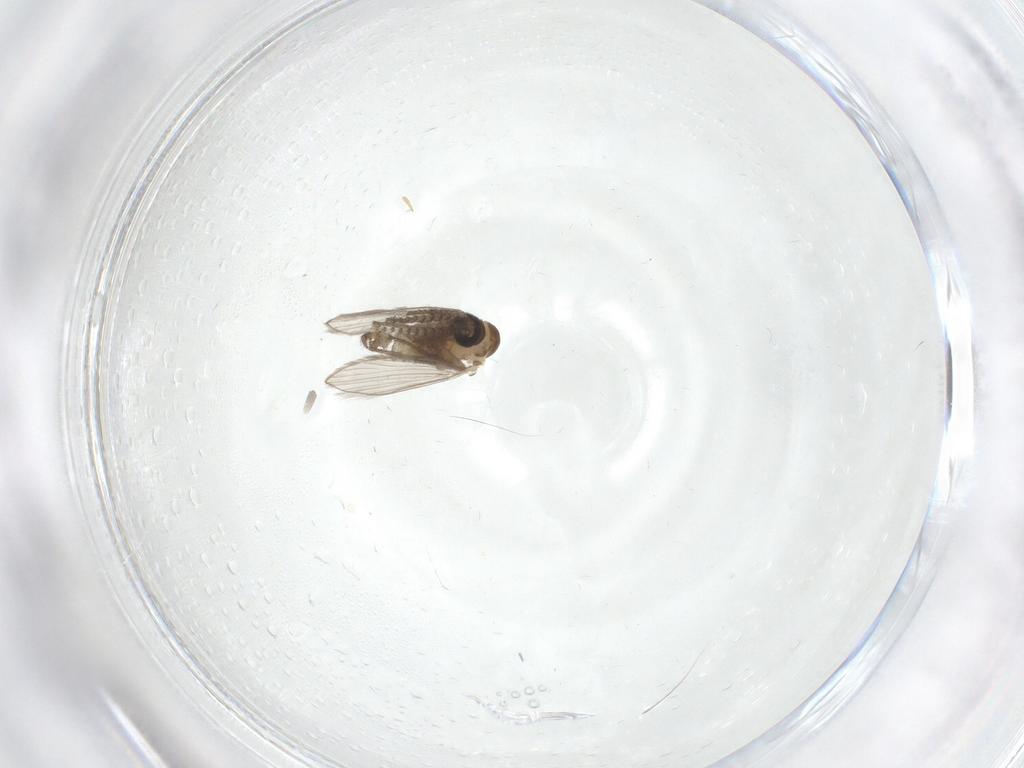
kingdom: Animalia
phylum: Arthropoda
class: Insecta
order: Diptera
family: Psychodidae
